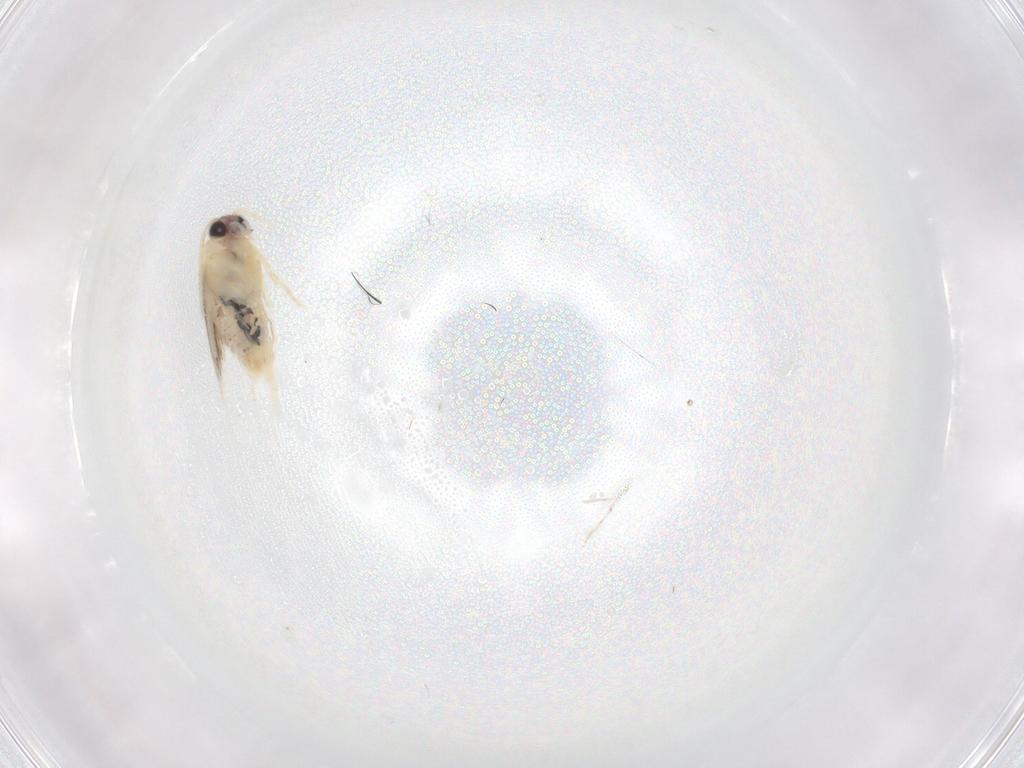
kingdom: Animalia
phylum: Arthropoda
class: Insecta
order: Lepidoptera
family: Nepticulidae
